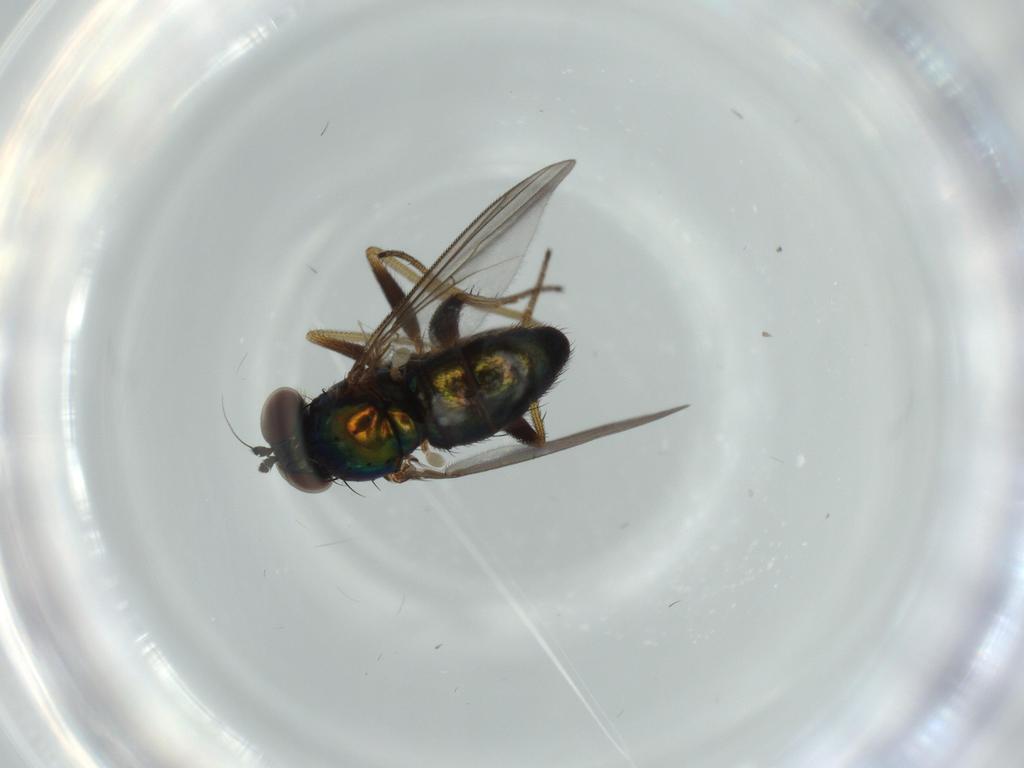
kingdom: Animalia
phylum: Arthropoda
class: Insecta
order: Diptera
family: Cecidomyiidae
